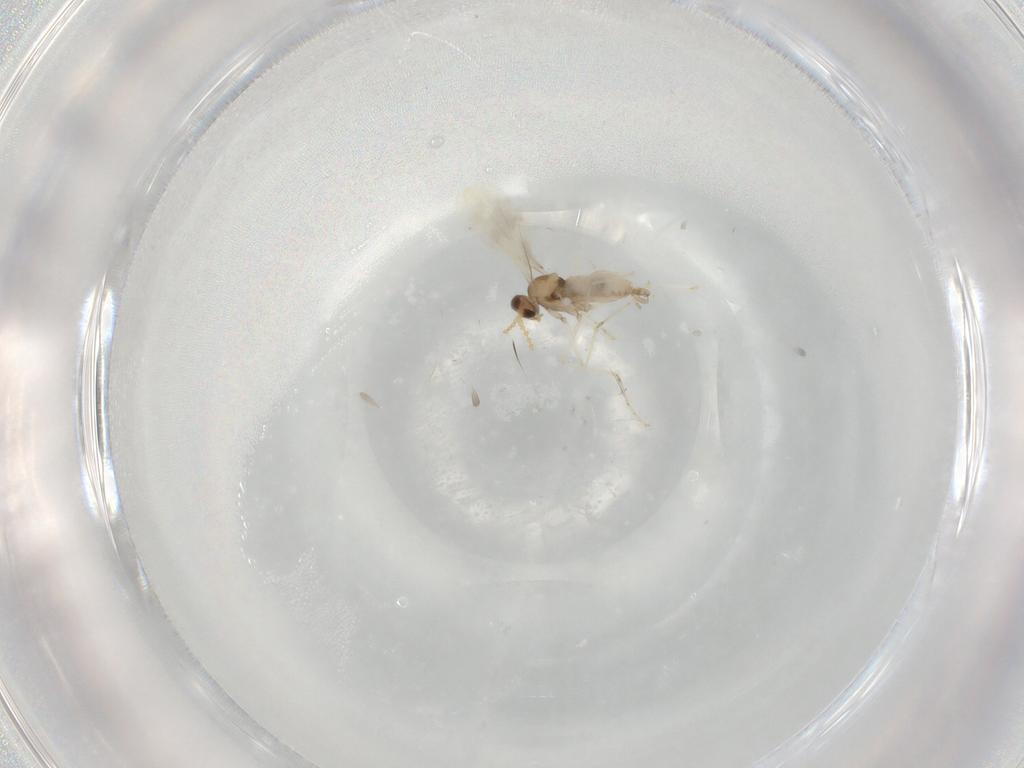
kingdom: Animalia
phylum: Arthropoda
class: Insecta
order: Diptera
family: Cecidomyiidae
